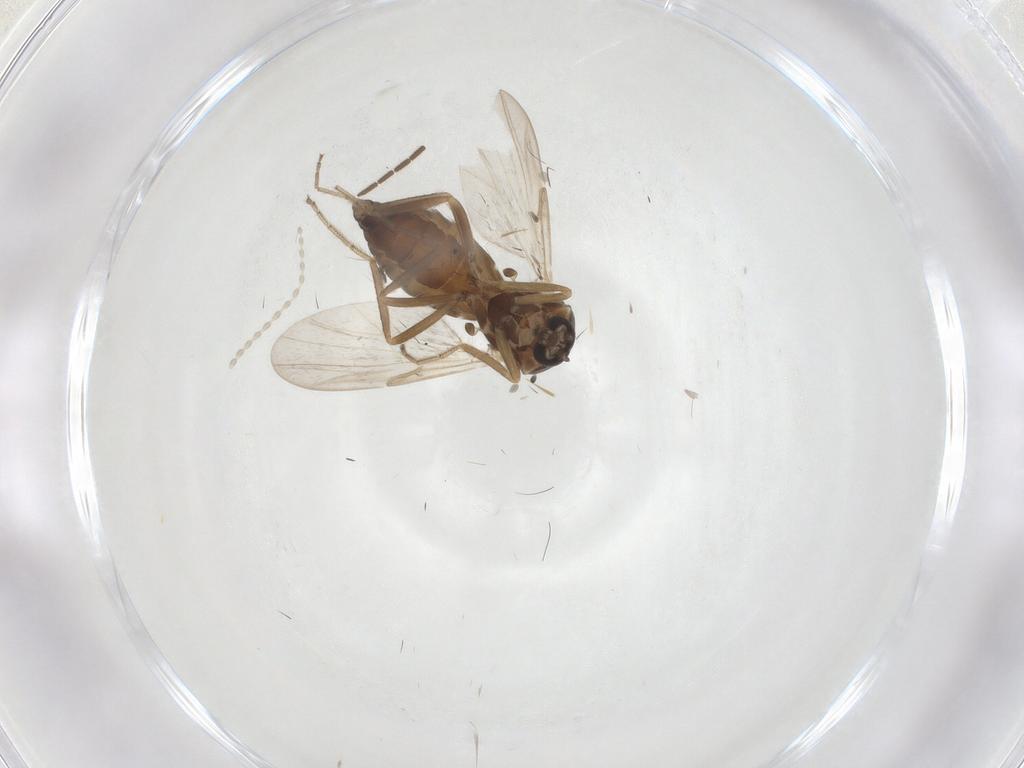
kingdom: Animalia
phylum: Arthropoda
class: Insecta
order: Diptera
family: Ceratopogonidae
